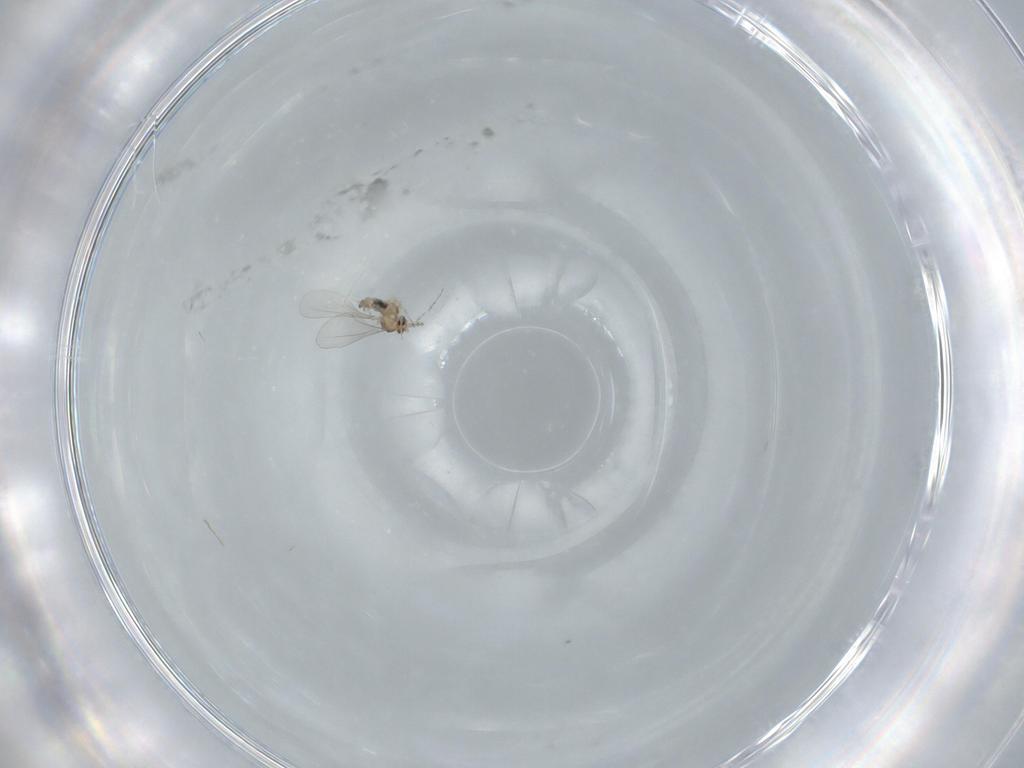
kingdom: Animalia
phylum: Arthropoda
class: Insecta
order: Diptera
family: Cecidomyiidae
